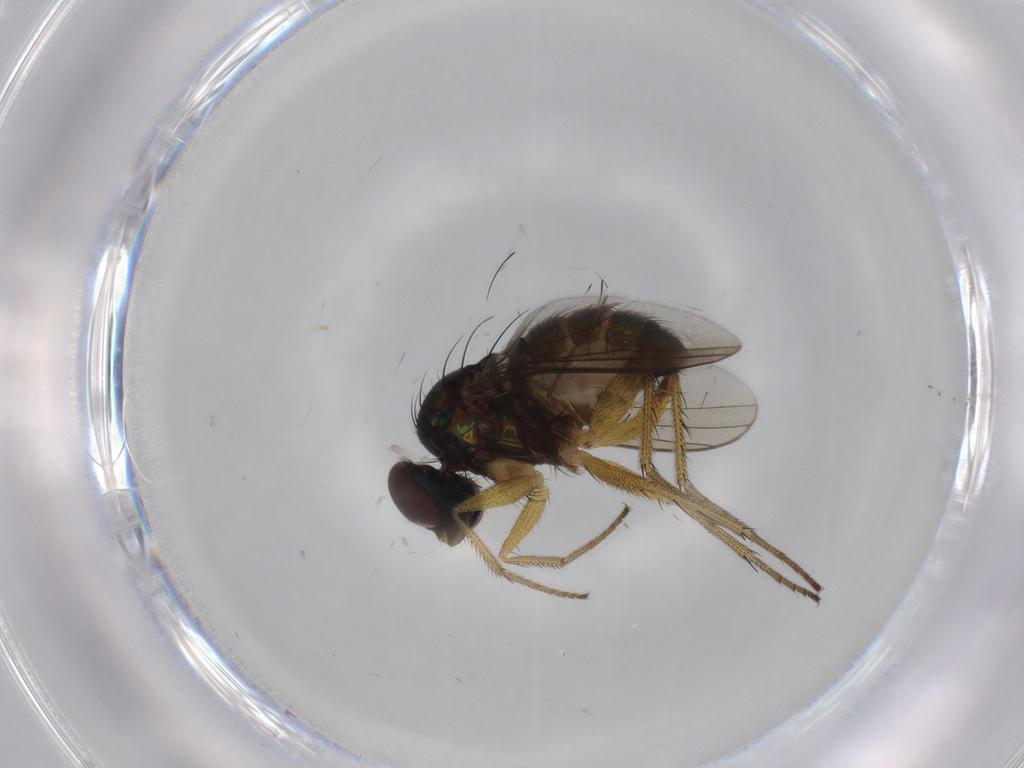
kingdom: Animalia
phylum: Arthropoda
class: Insecta
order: Diptera
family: Dolichopodidae
